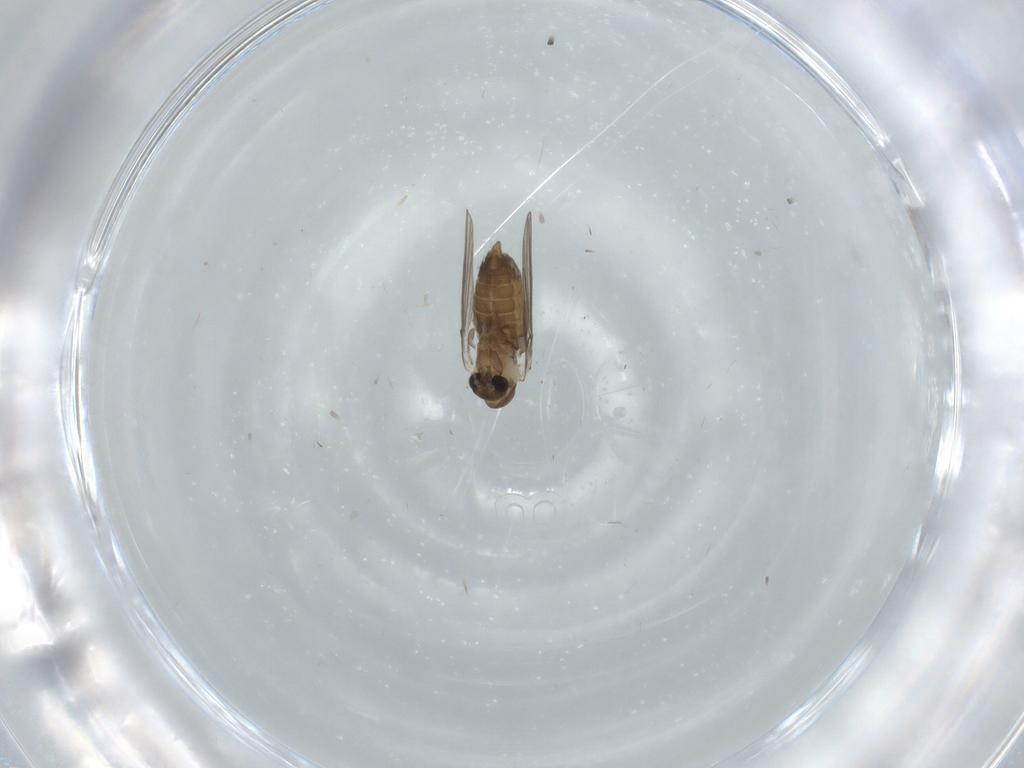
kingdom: Animalia
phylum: Arthropoda
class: Insecta
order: Diptera
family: Psychodidae
